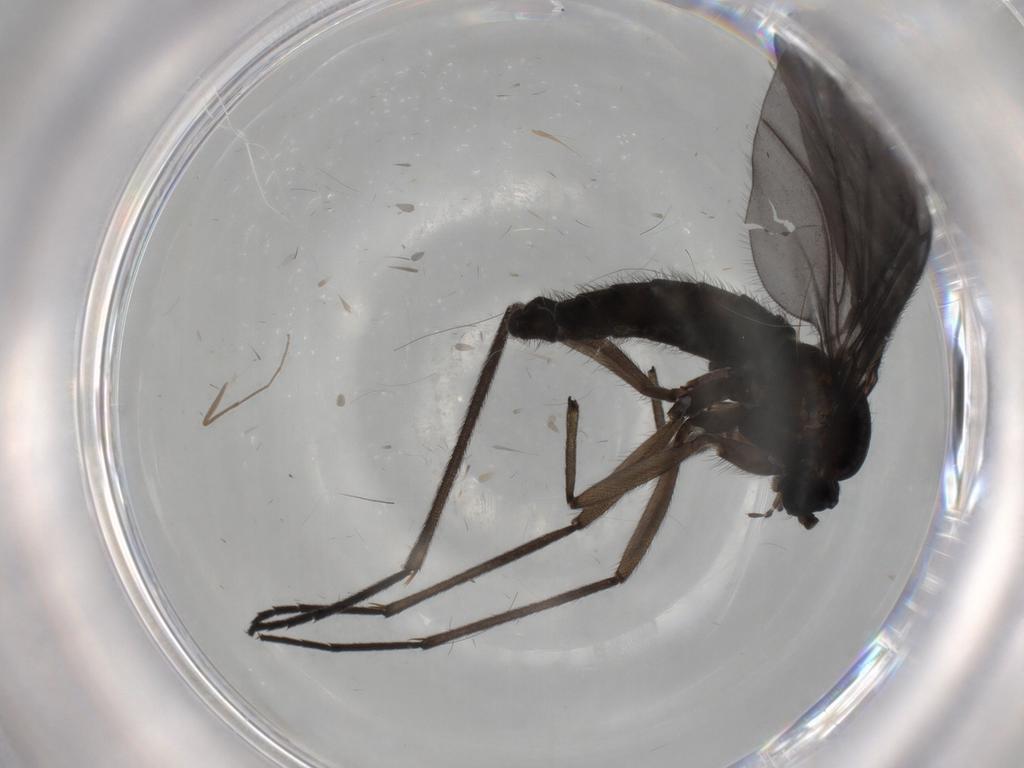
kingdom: Animalia
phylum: Arthropoda
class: Insecta
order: Diptera
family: Sciaridae
